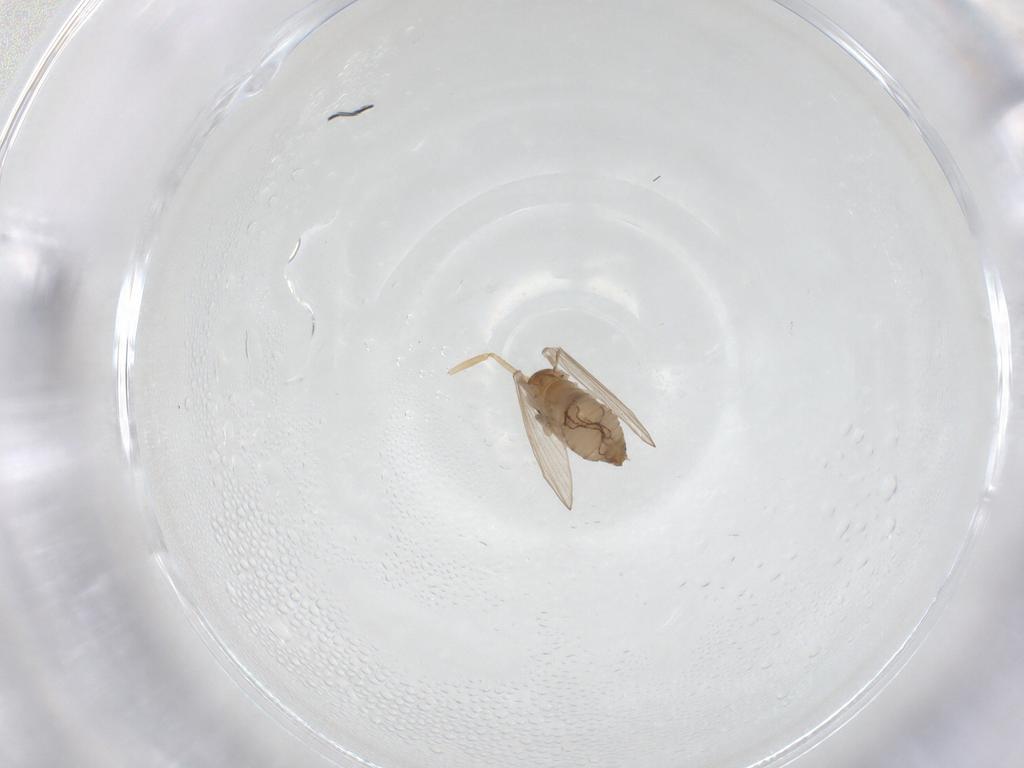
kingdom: Animalia
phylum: Arthropoda
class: Insecta
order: Diptera
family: Psychodidae
